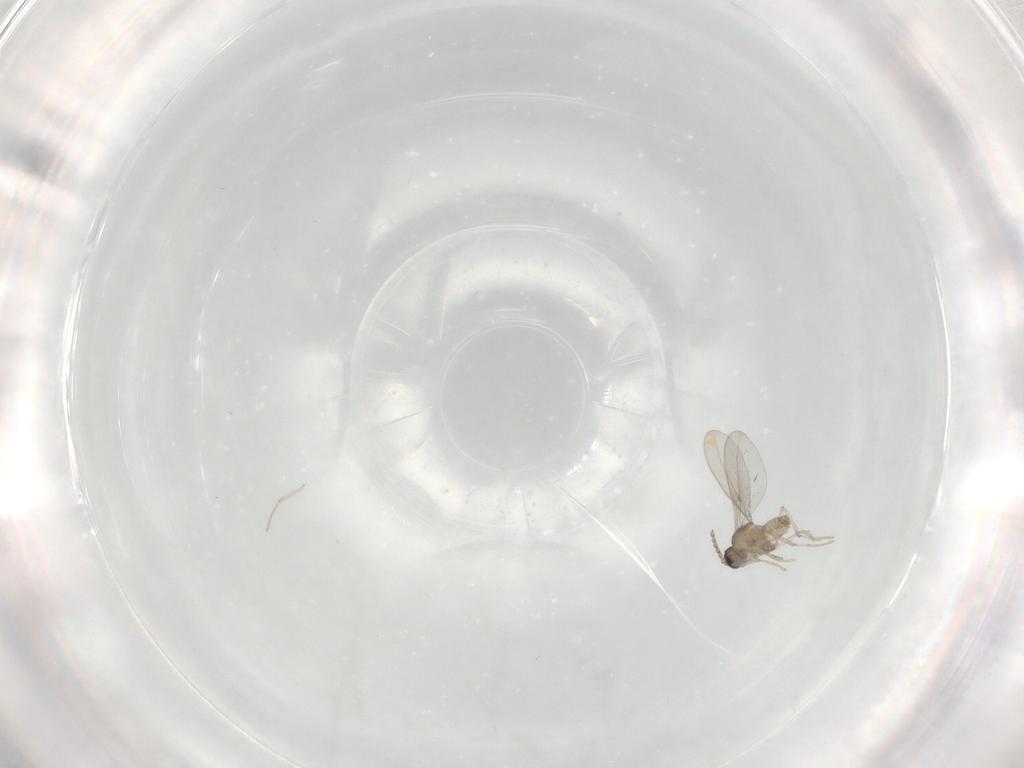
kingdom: Animalia
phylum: Arthropoda
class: Insecta
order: Diptera
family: Cecidomyiidae
